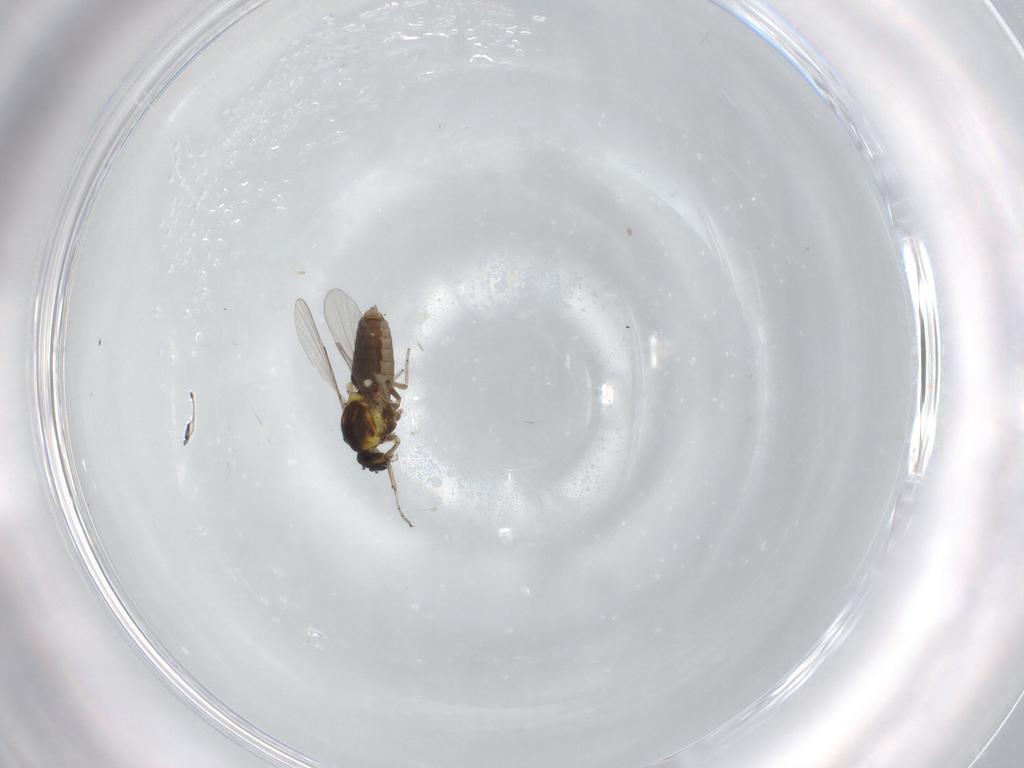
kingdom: Animalia
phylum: Arthropoda
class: Insecta
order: Diptera
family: Ceratopogonidae
